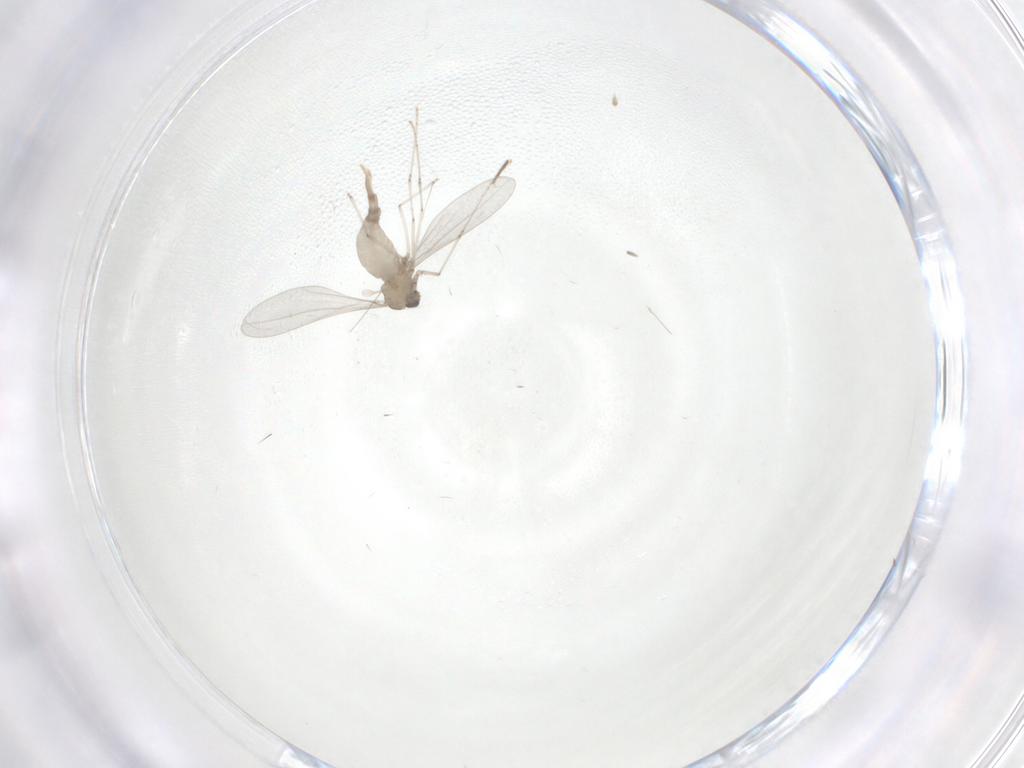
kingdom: Animalia
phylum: Arthropoda
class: Insecta
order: Diptera
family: Cecidomyiidae
